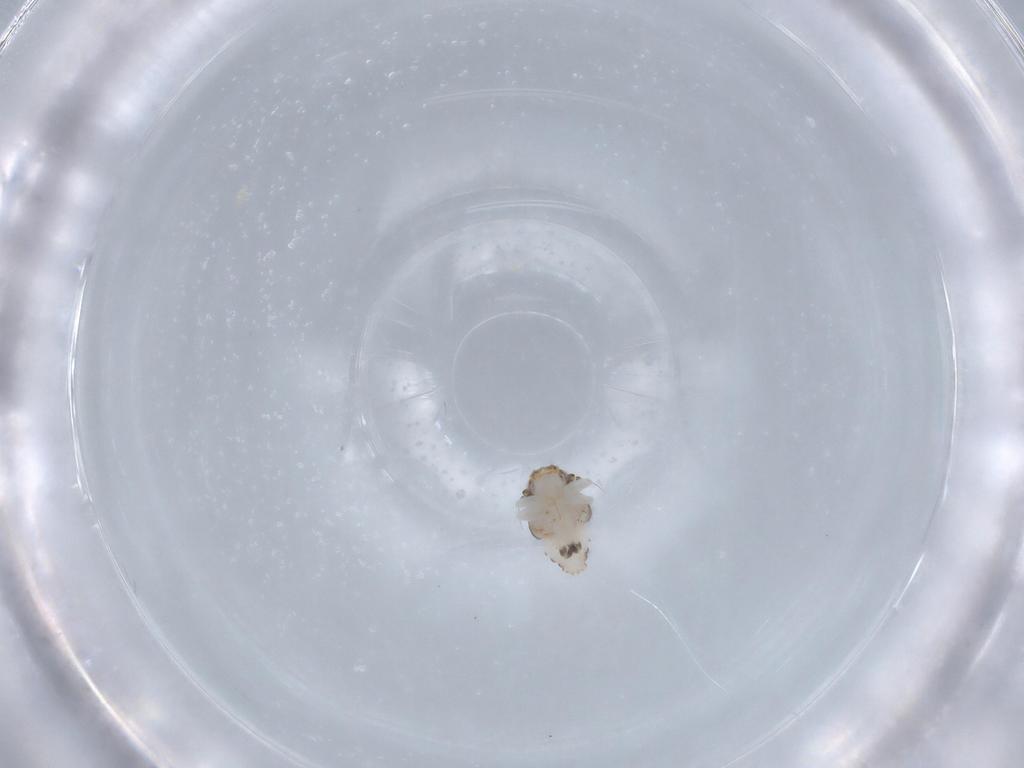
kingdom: Animalia
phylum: Arthropoda
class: Insecta
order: Hemiptera
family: Nogodinidae
